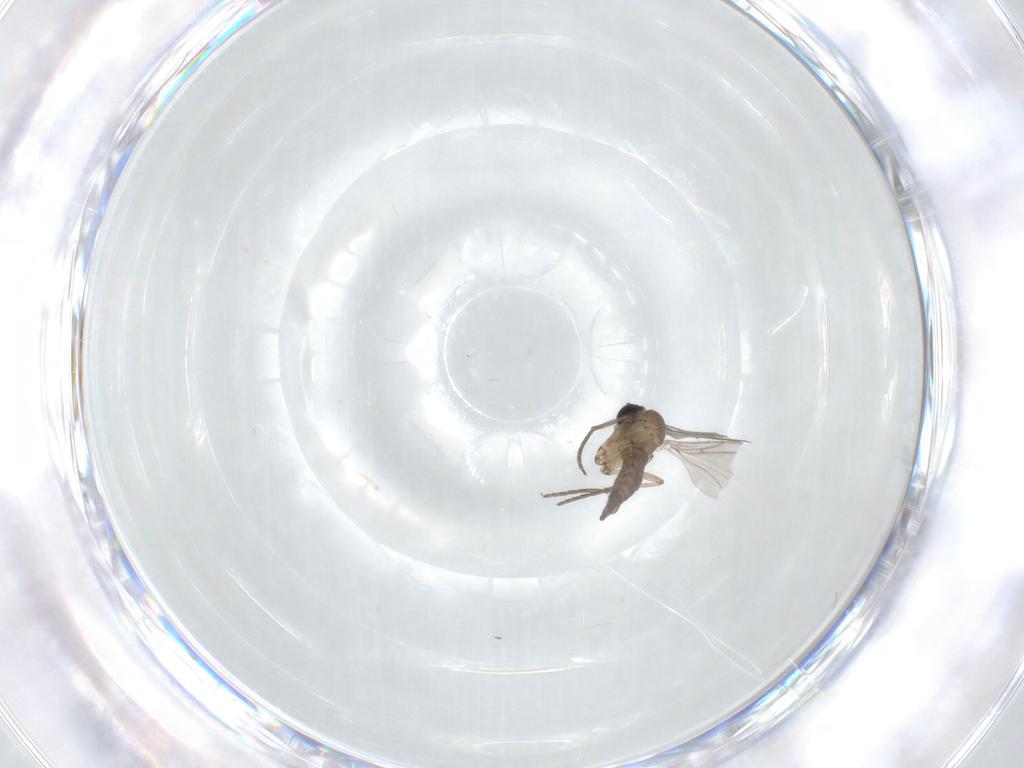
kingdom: Animalia
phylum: Arthropoda
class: Insecta
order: Diptera
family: Sciaridae
